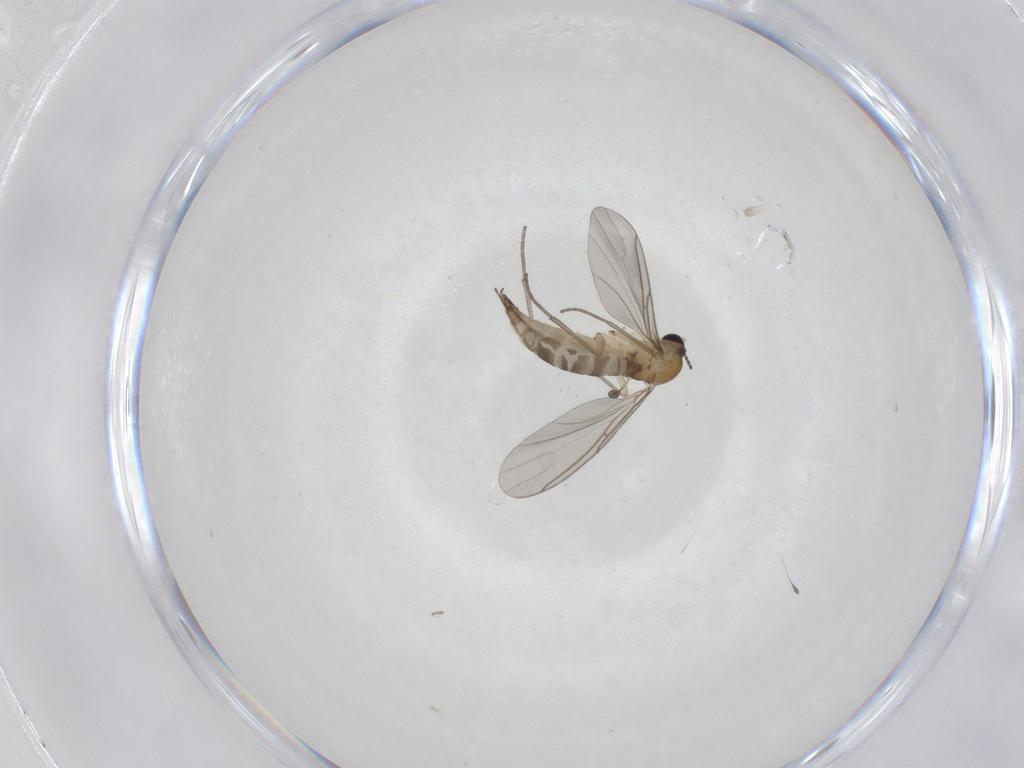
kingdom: Animalia
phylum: Arthropoda
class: Insecta
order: Diptera
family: Sciaridae
